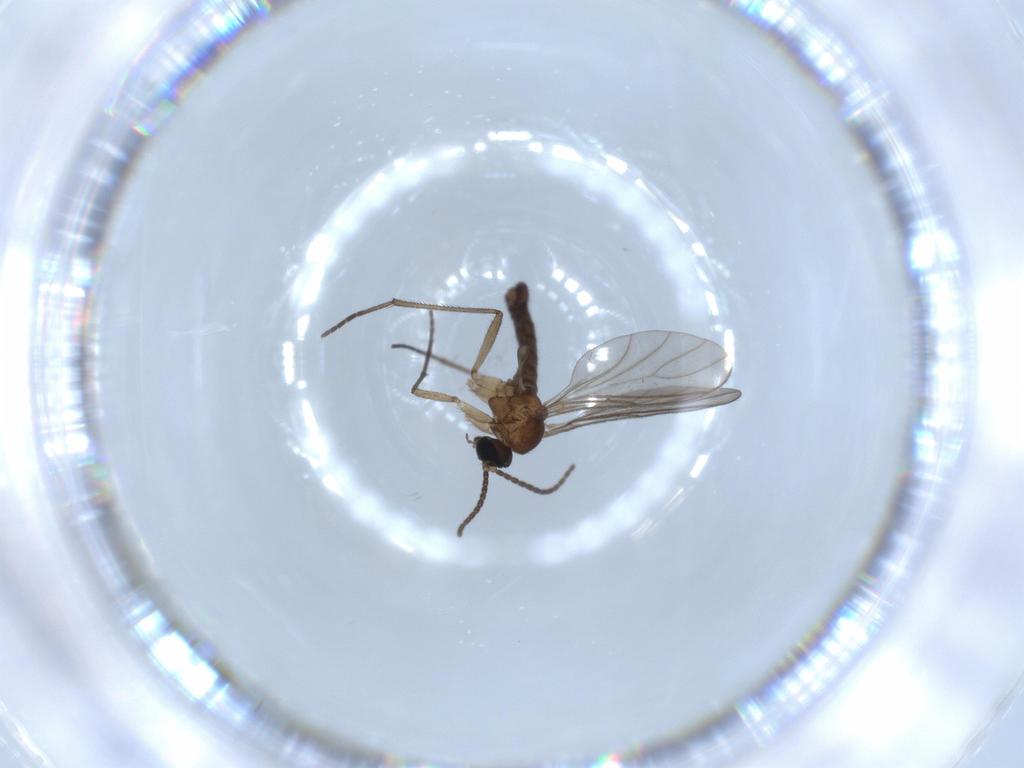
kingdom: Animalia
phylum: Arthropoda
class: Insecta
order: Diptera
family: Sciaridae
